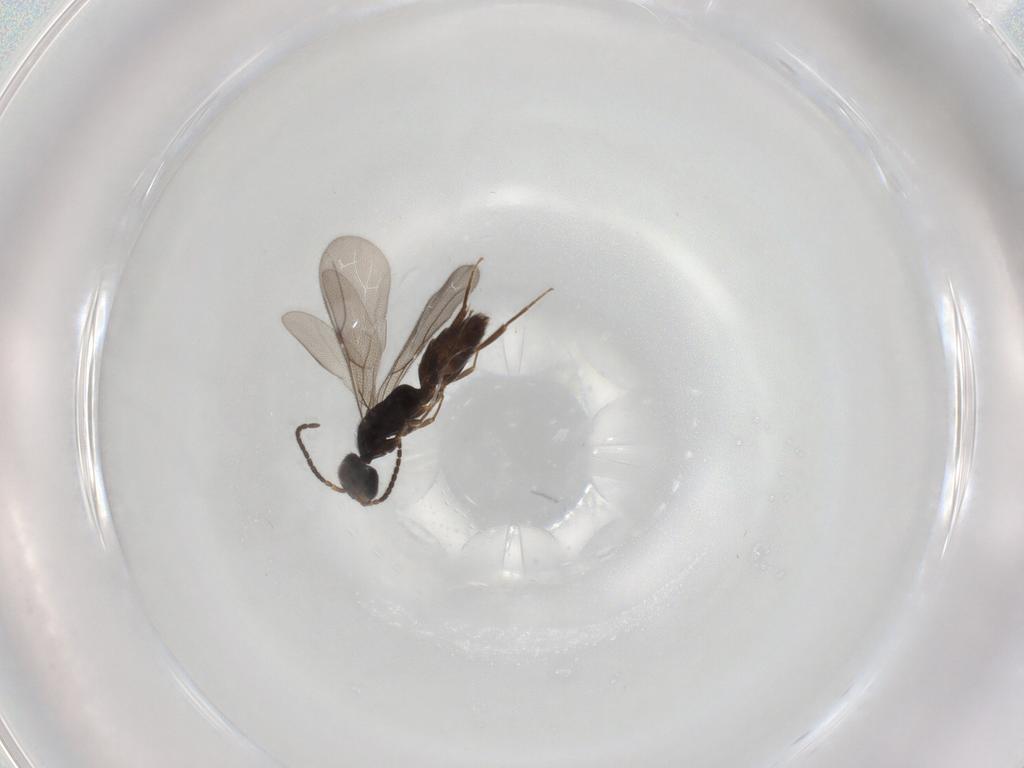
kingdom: Animalia
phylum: Arthropoda
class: Insecta
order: Hymenoptera
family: Bethylidae
